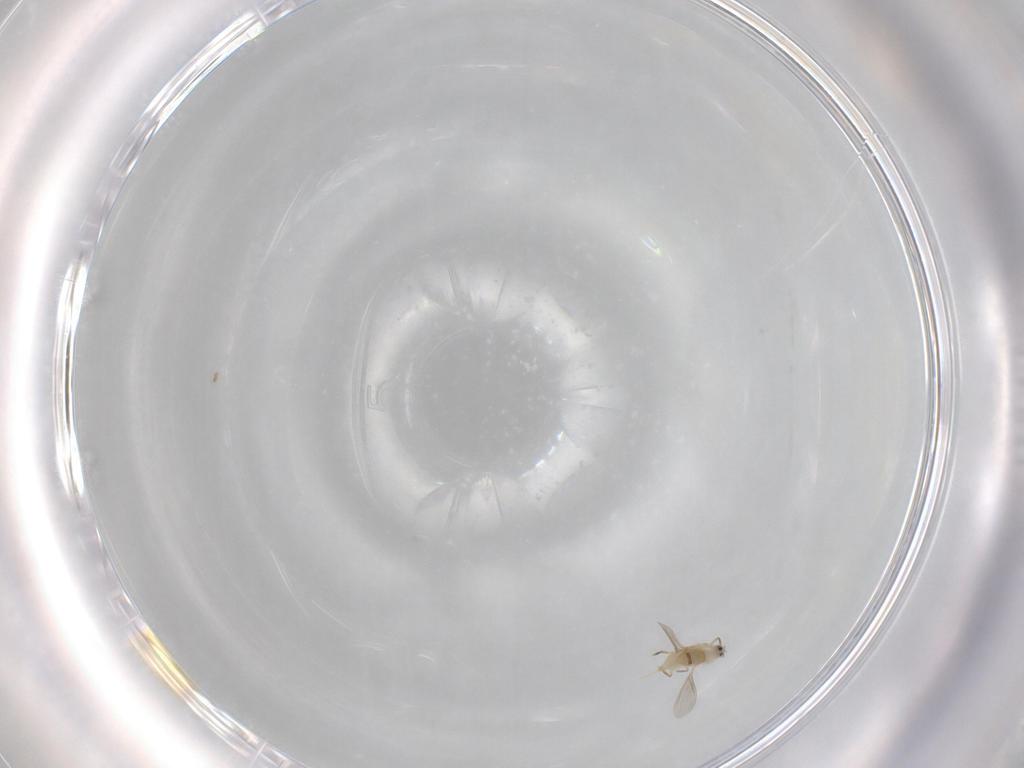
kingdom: Animalia
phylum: Arthropoda
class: Insecta
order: Hemiptera
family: Diaspididae
